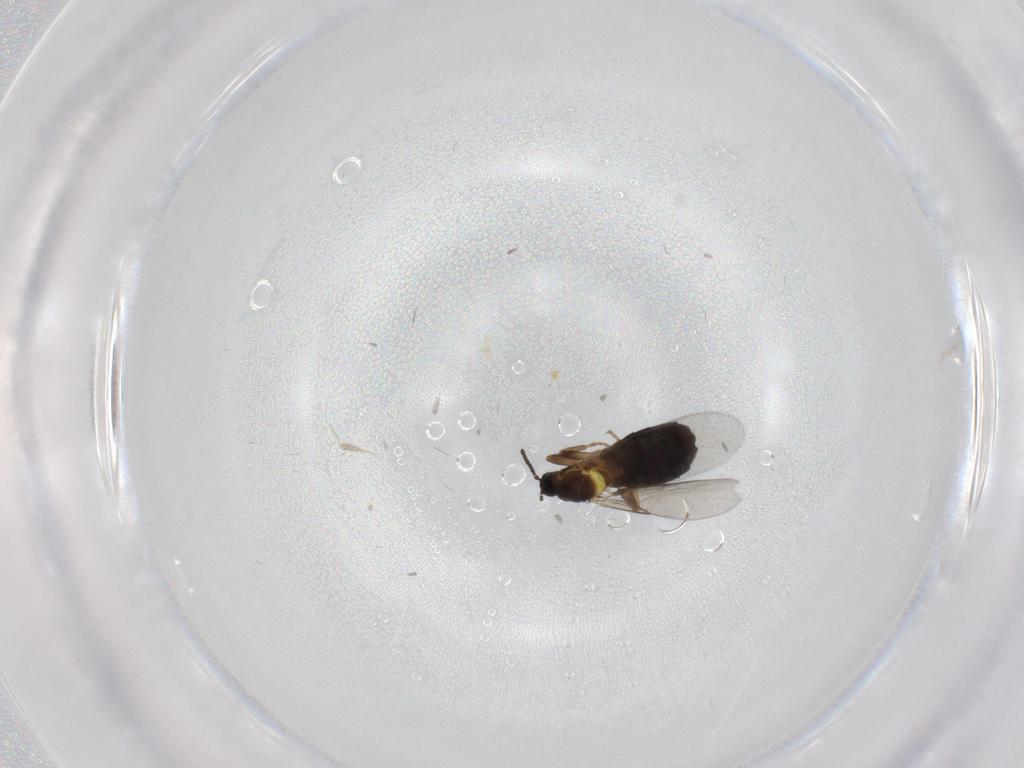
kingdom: Animalia
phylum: Arthropoda
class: Insecta
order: Diptera
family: Scatopsidae
